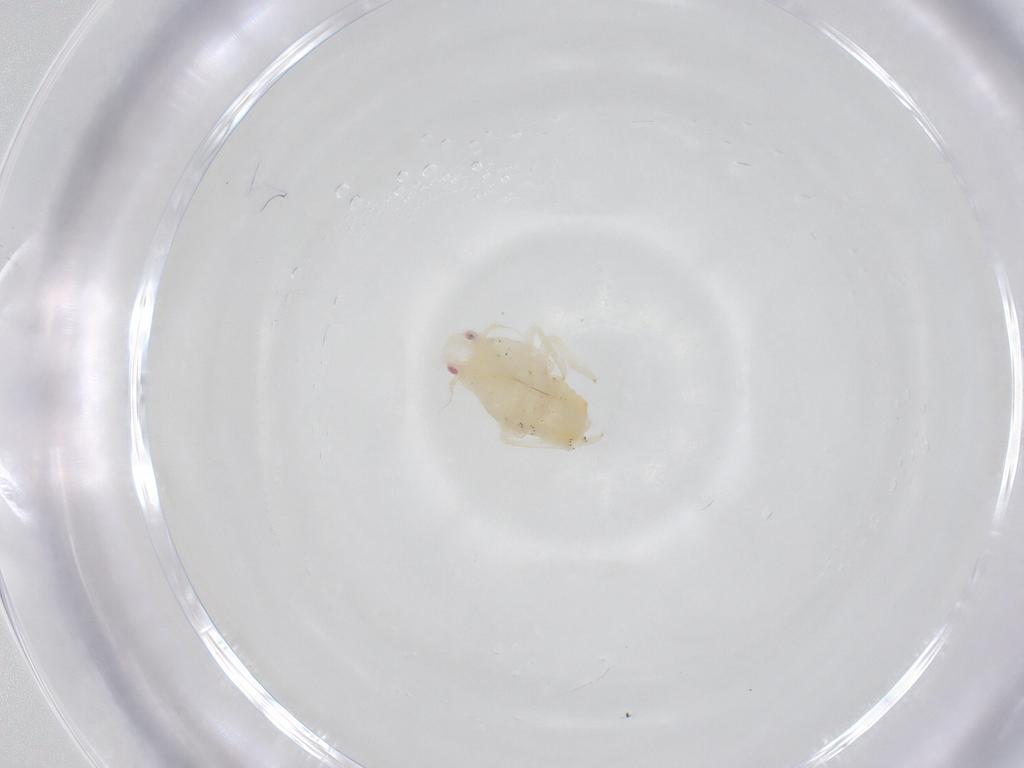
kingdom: Animalia
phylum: Arthropoda
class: Insecta
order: Hemiptera
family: Flatidae
